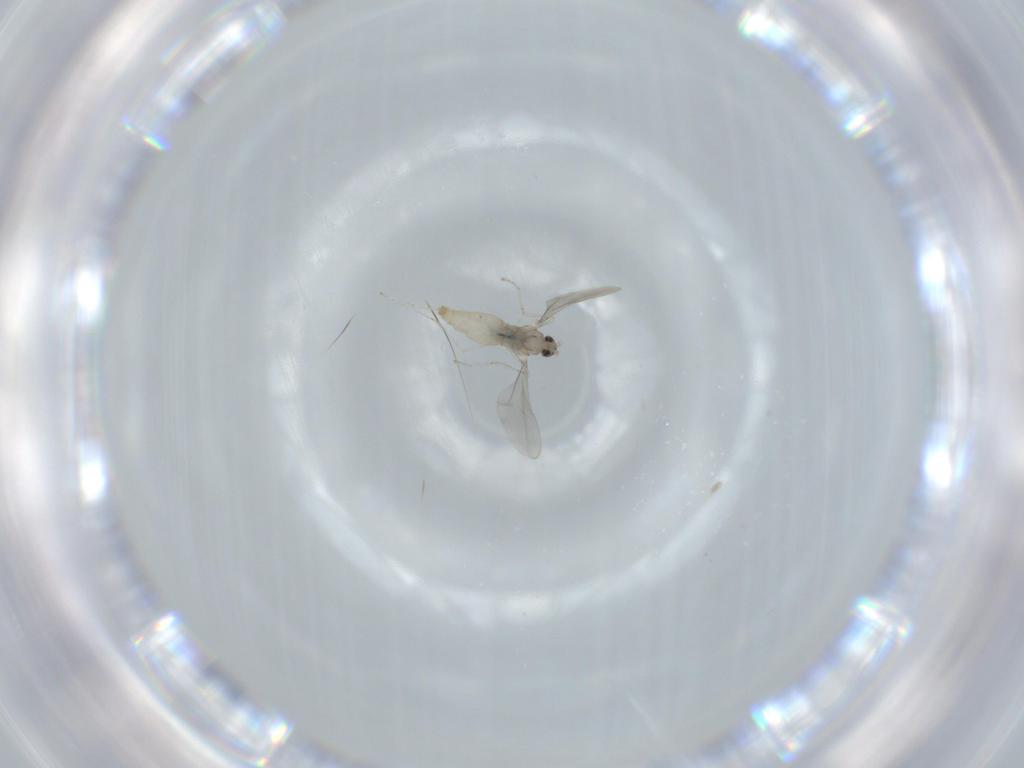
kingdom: Animalia
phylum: Arthropoda
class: Insecta
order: Diptera
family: Cecidomyiidae
